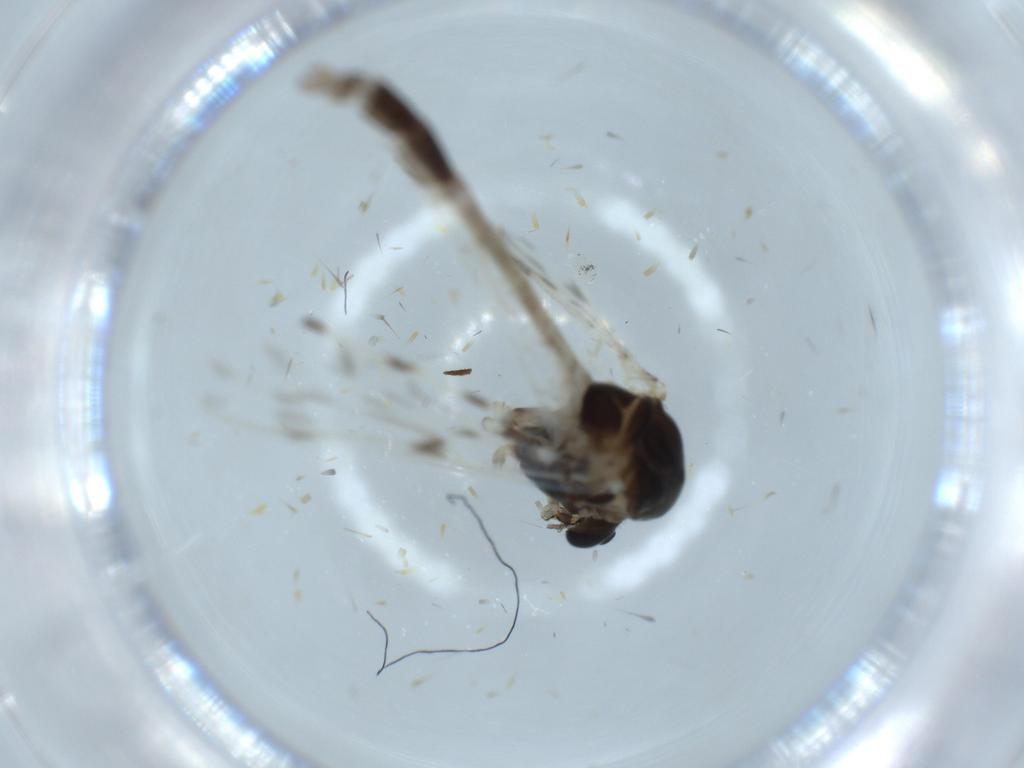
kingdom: Animalia
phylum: Arthropoda
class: Insecta
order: Diptera
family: Chironomidae
